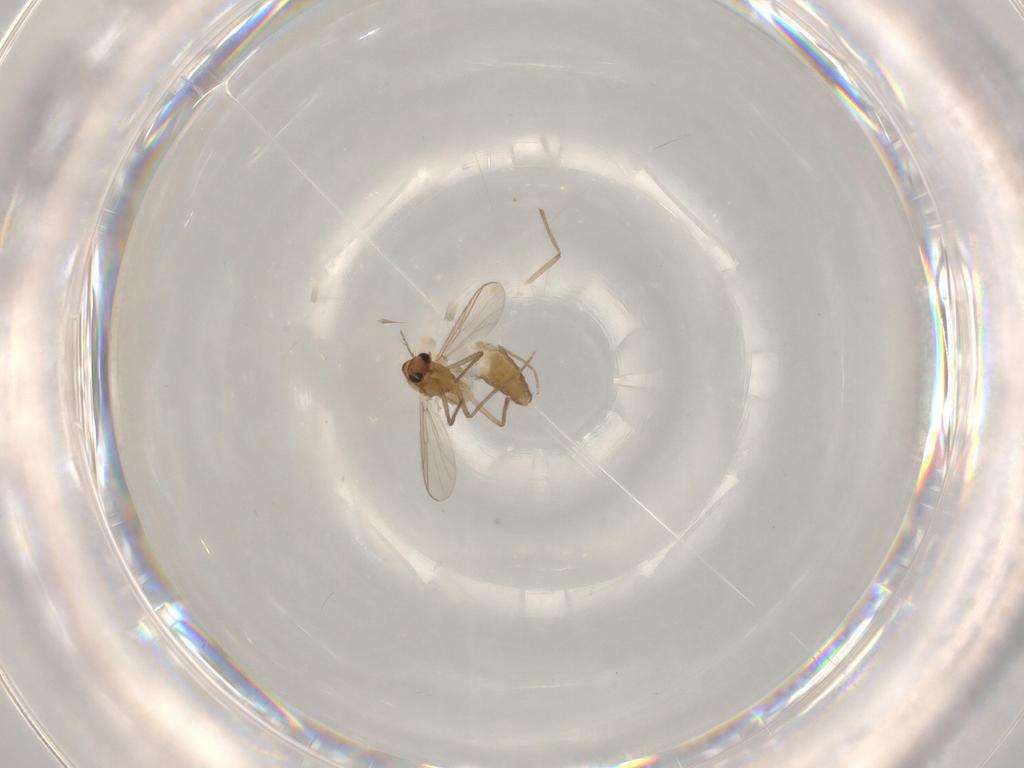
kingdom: Animalia
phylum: Arthropoda
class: Insecta
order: Diptera
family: Chironomidae
